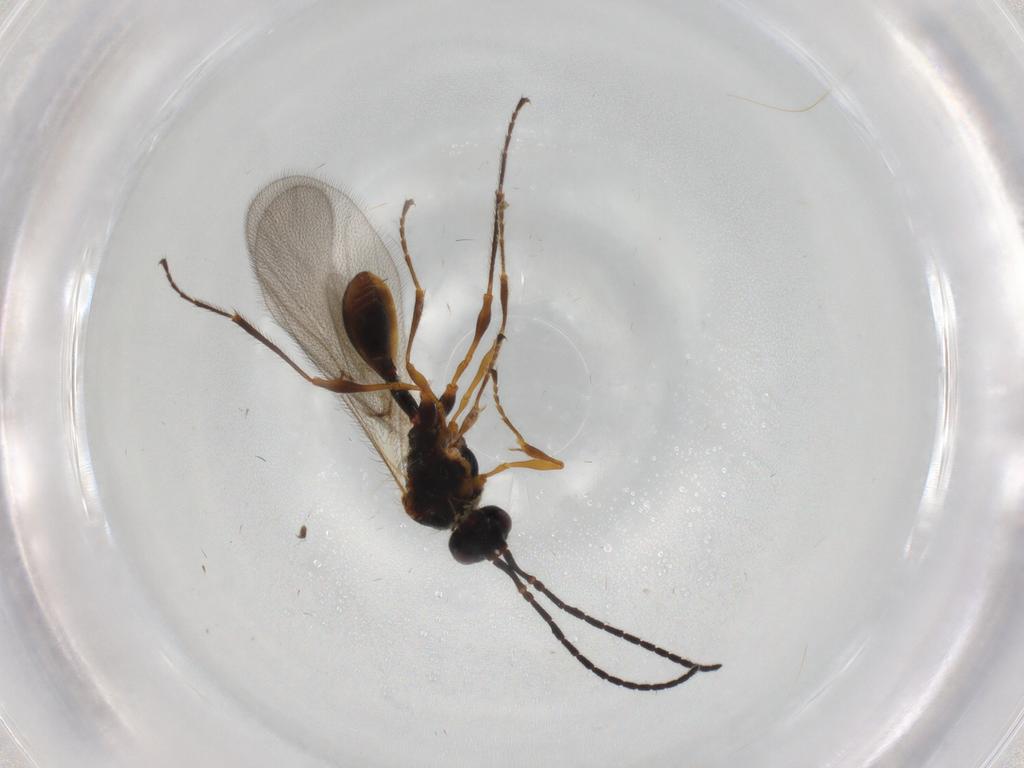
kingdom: Animalia
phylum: Arthropoda
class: Insecta
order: Hymenoptera
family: Diapriidae
